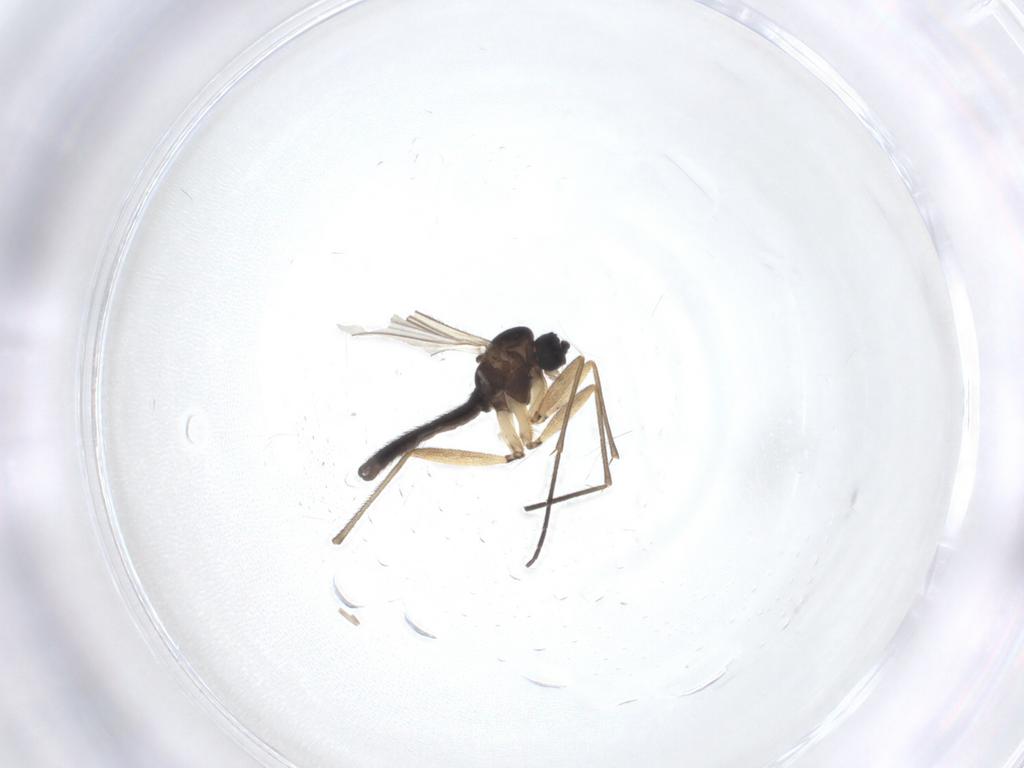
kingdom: Animalia
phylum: Arthropoda
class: Insecta
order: Diptera
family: Sciaridae
